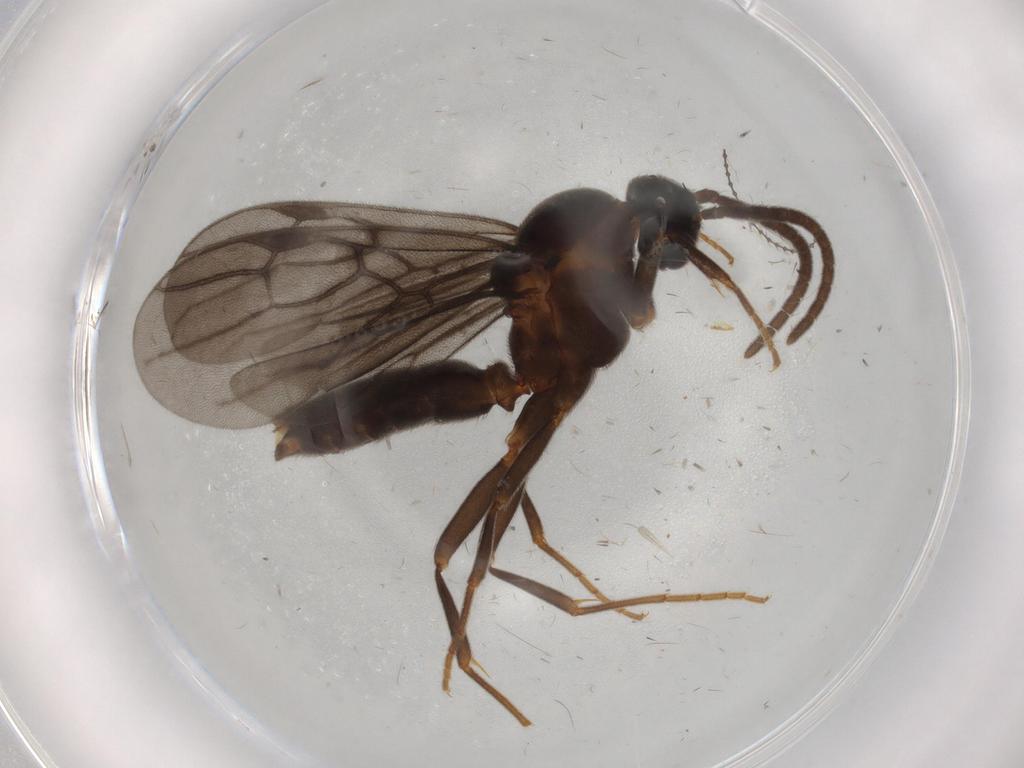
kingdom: Animalia
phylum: Arthropoda
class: Insecta
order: Hymenoptera
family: Formicidae
